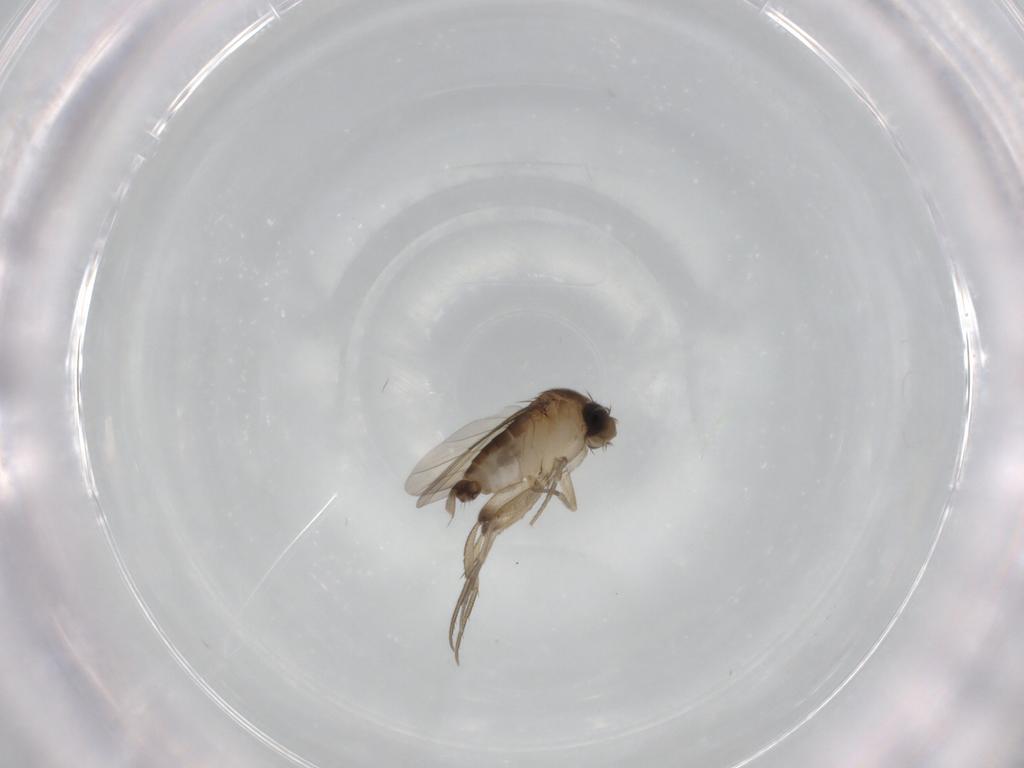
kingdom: Animalia
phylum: Arthropoda
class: Insecta
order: Diptera
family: Phoridae
